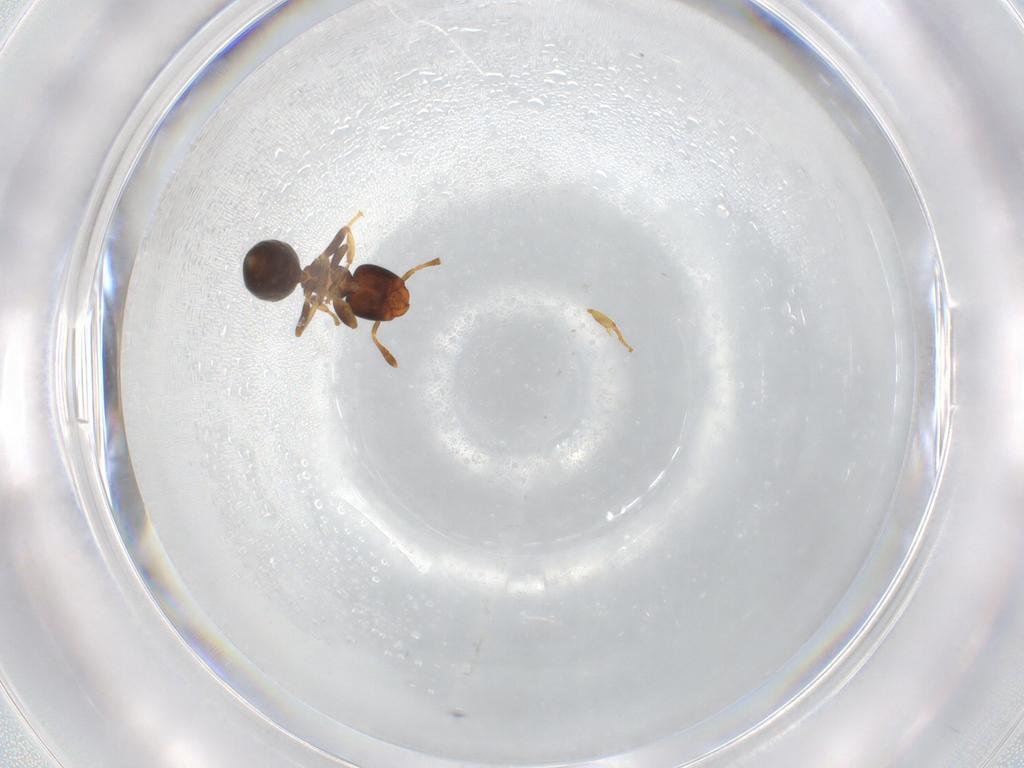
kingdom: Animalia
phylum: Arthropoda
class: Insecta
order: Hymenoptera
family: Formicidae
